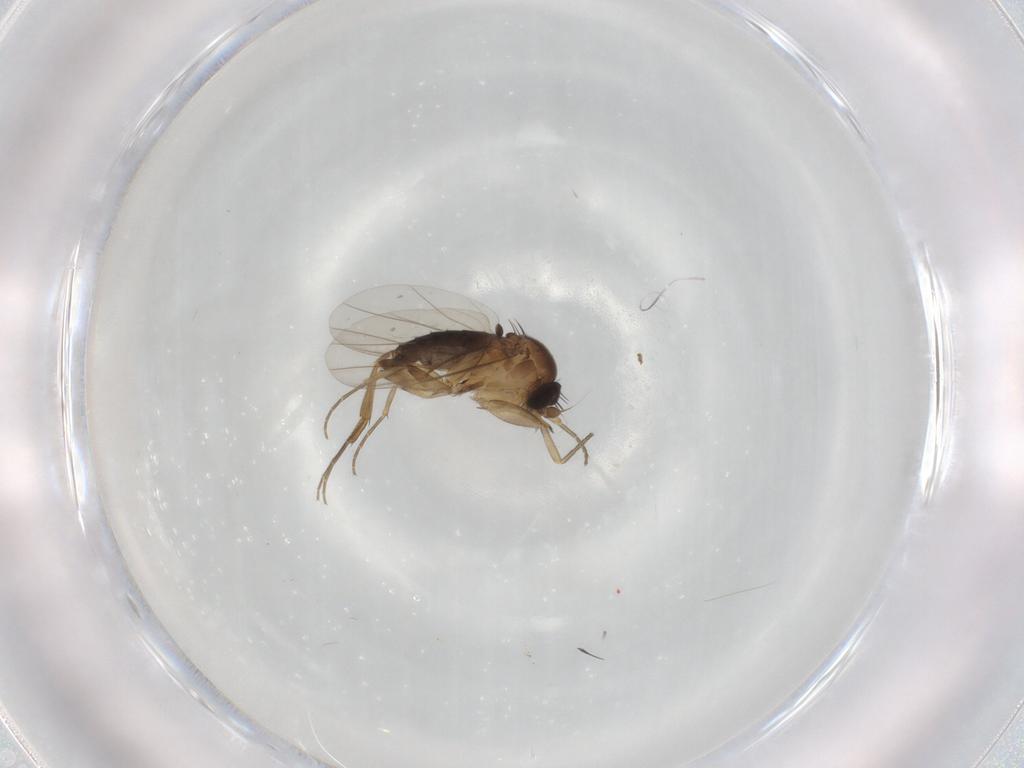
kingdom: Animalia
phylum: Arthropoda
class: Insecta
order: Diptera
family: Phoridae
